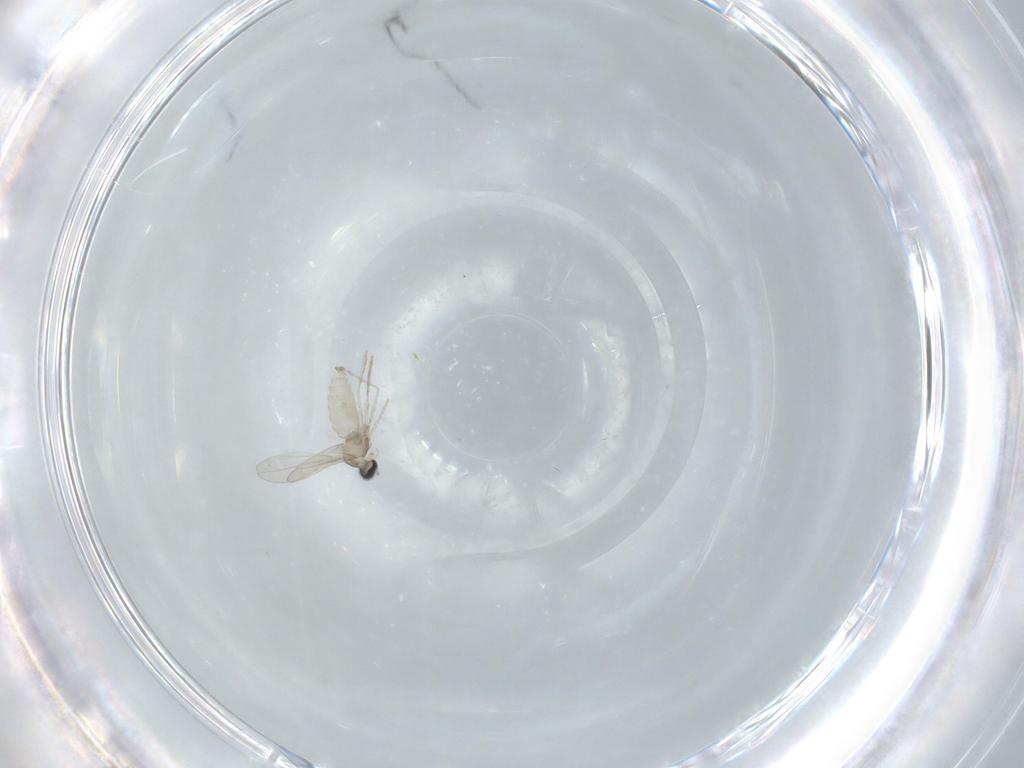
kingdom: Animalia
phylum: Arthropoda
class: Insecta
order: Diptera
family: Cecidomyiidae
